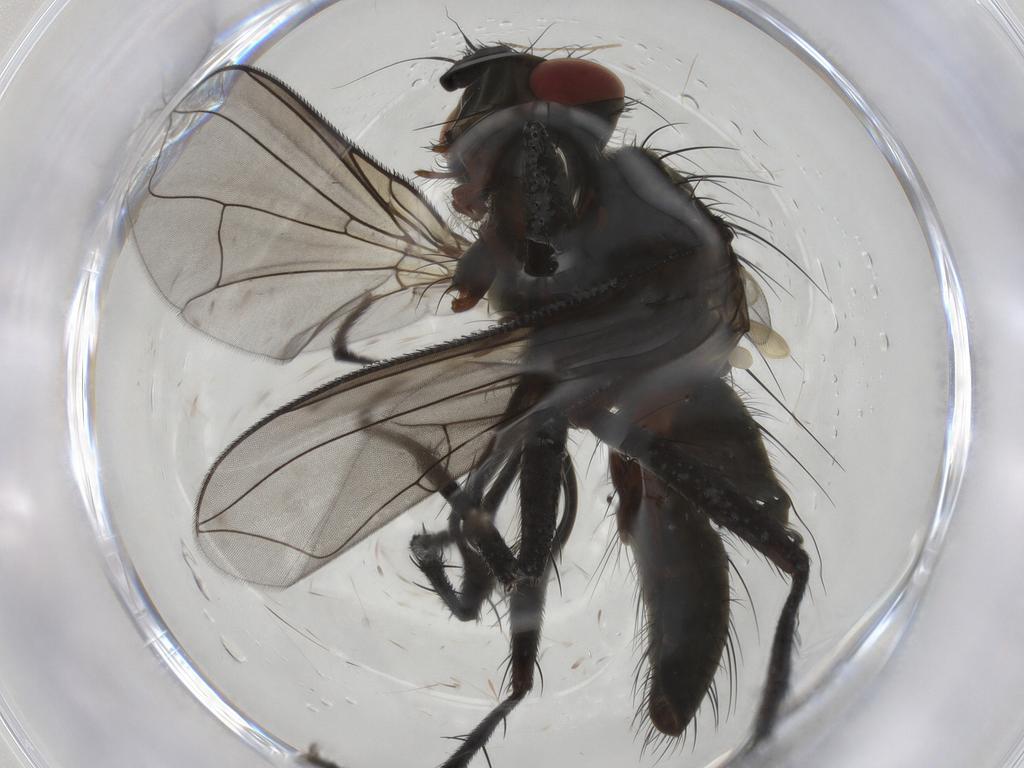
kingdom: Animalia
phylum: Arthropoda
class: Insecta
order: Diptera
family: Tachinidae
